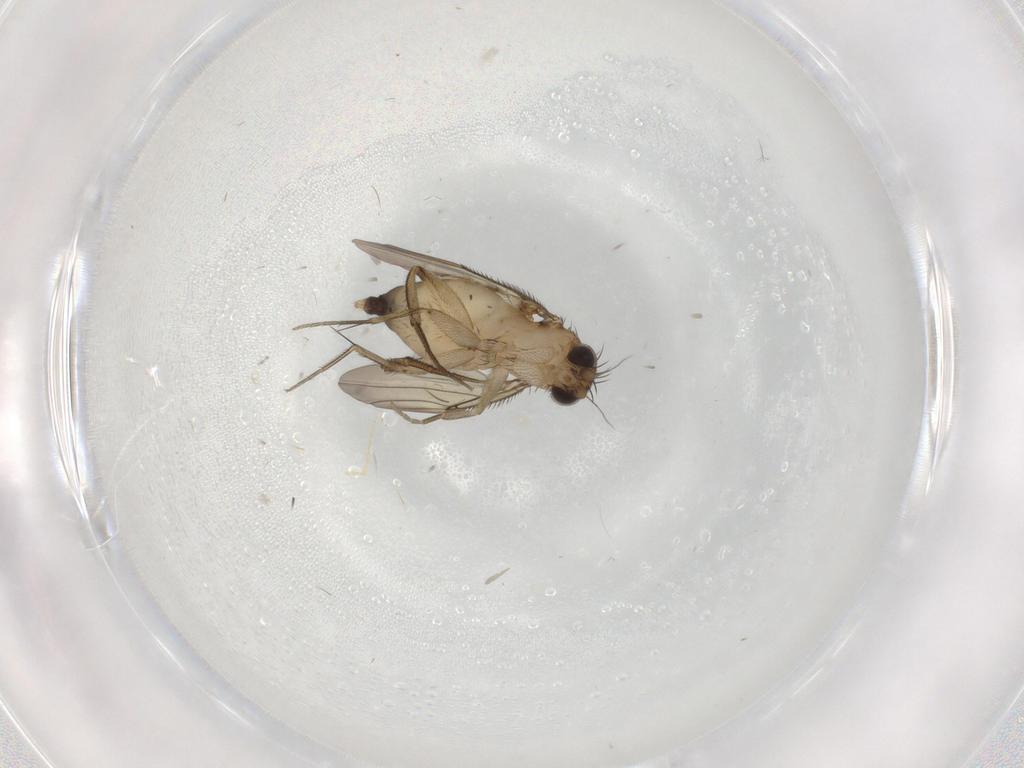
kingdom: Animalia
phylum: Arthropoda
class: Insecta
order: Diptera
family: Phoridae
